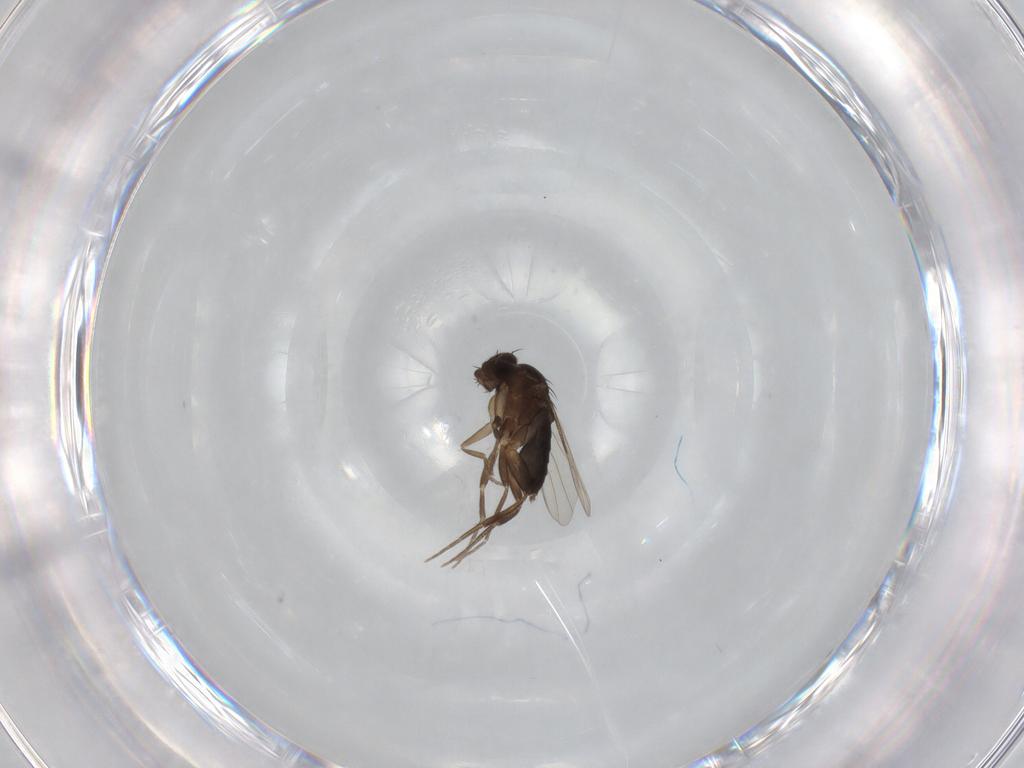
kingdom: Animalia
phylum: Arthropoda
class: Insecta
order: Diptera
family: Phoridae
